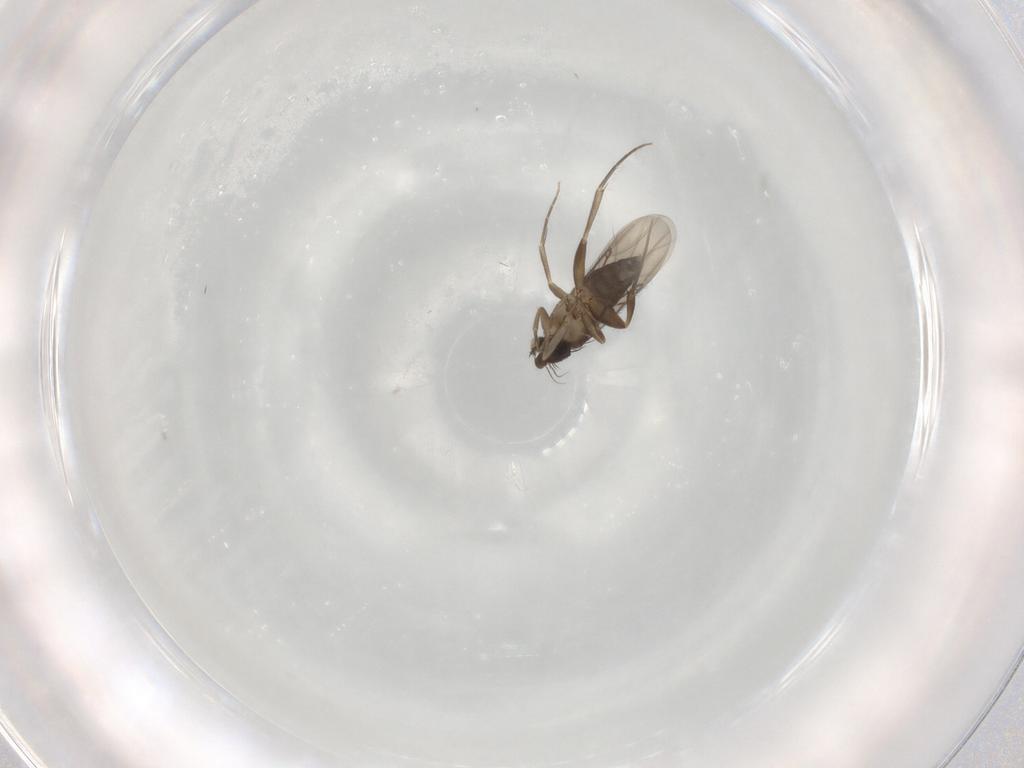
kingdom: Animalia
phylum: Arthropoda
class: Insecta
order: Diptera
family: Phoridae
